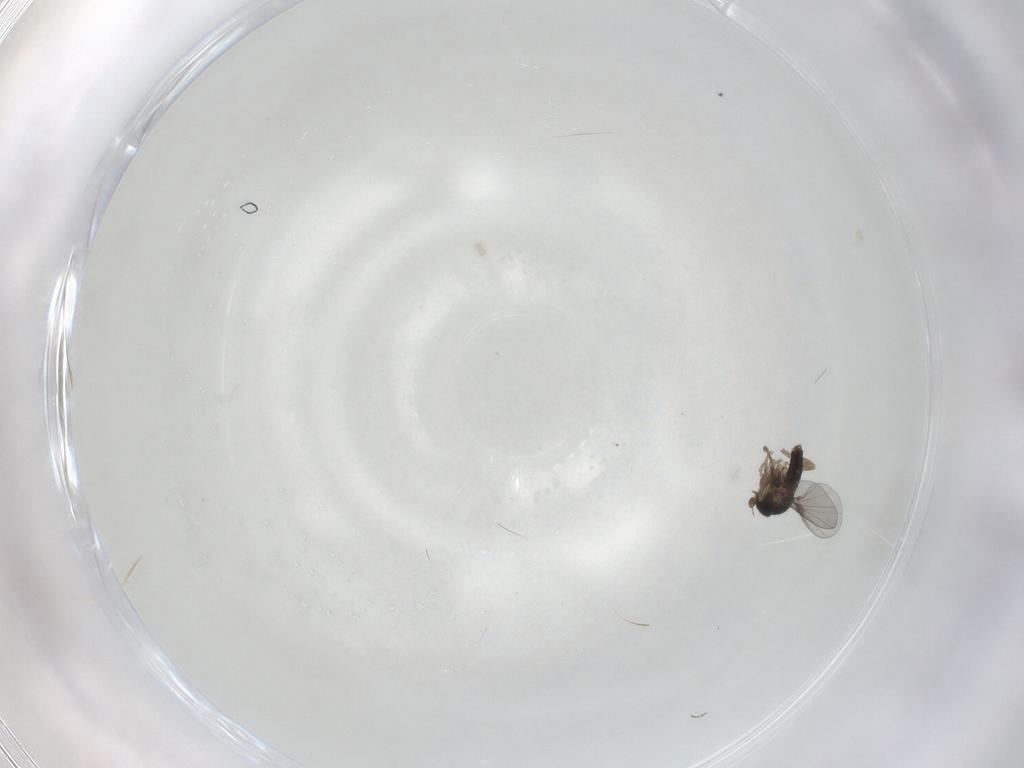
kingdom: Animalia
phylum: Arthropoda
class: Insecta
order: Diptera
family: Phoridae
